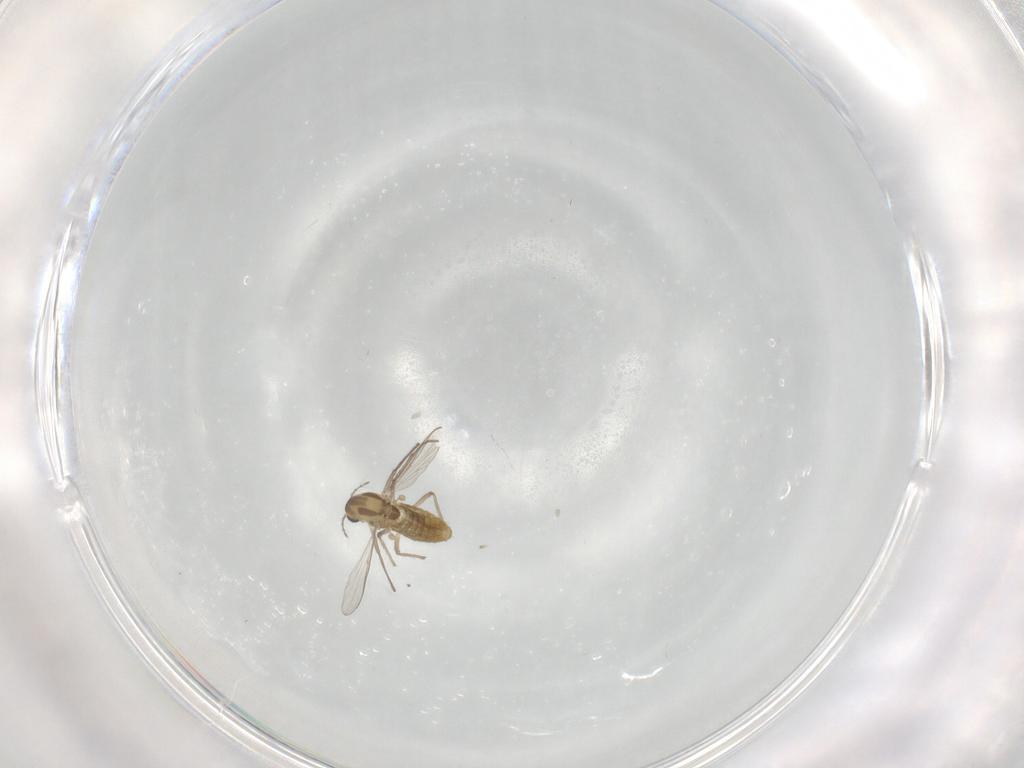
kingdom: Animalia
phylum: Arthropoda
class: Insecta
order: Diptera
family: Chironomidae
